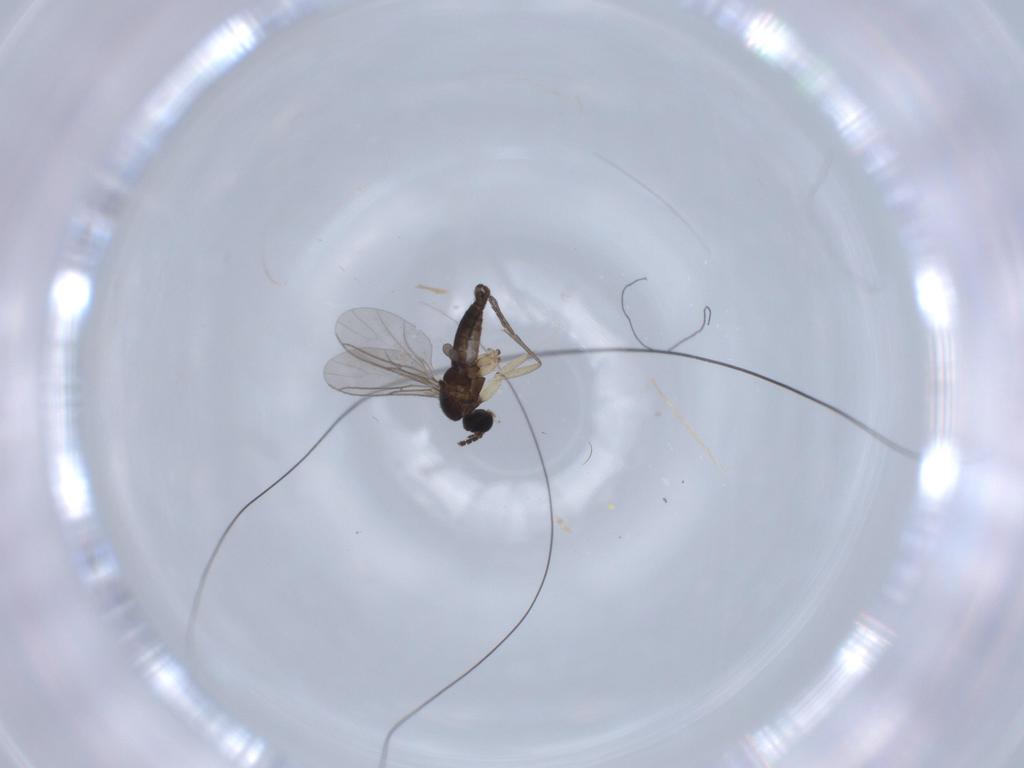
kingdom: Animalia
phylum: Arthropoda
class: Insecta
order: Diptera
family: Sciaridae
